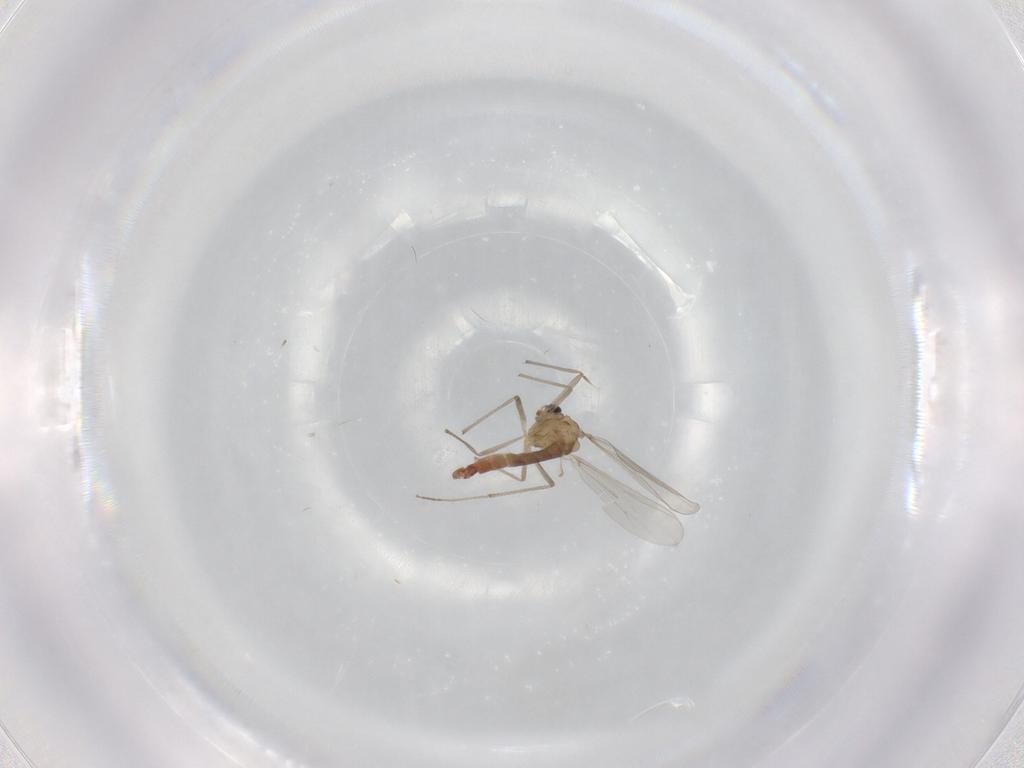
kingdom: Animalia
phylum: Arthropoda
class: Insecta
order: Diptera
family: Chironomidae
